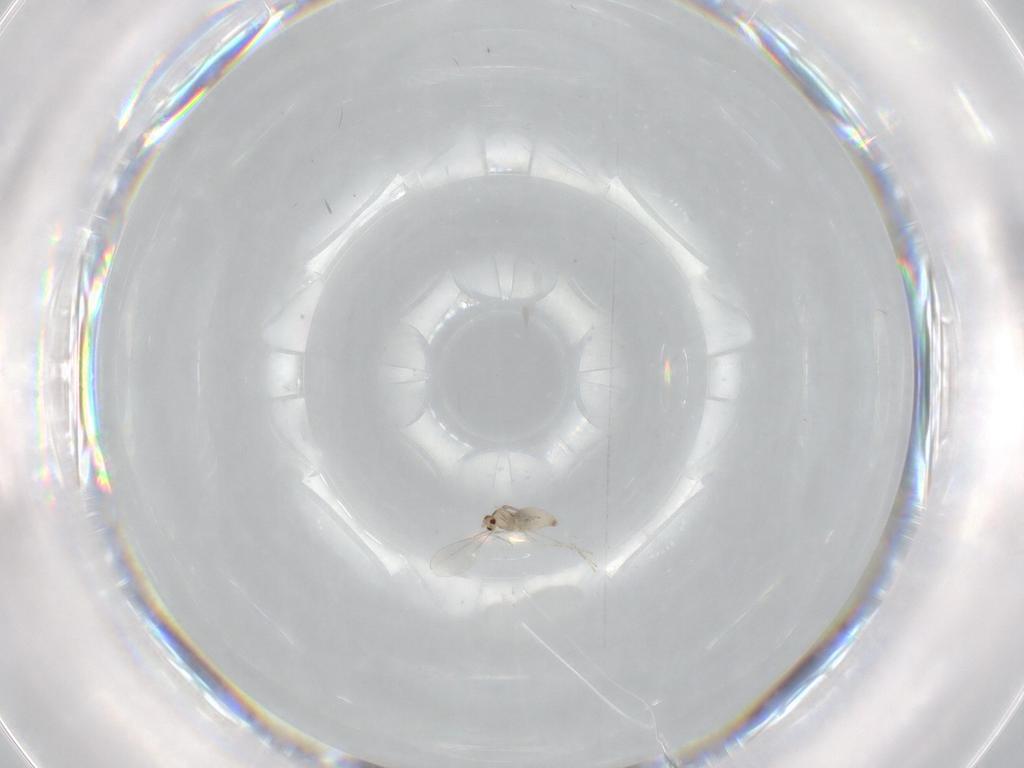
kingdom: Animalia
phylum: Arthropoda
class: Insecta
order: Diptera
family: Cecidomyiidae
